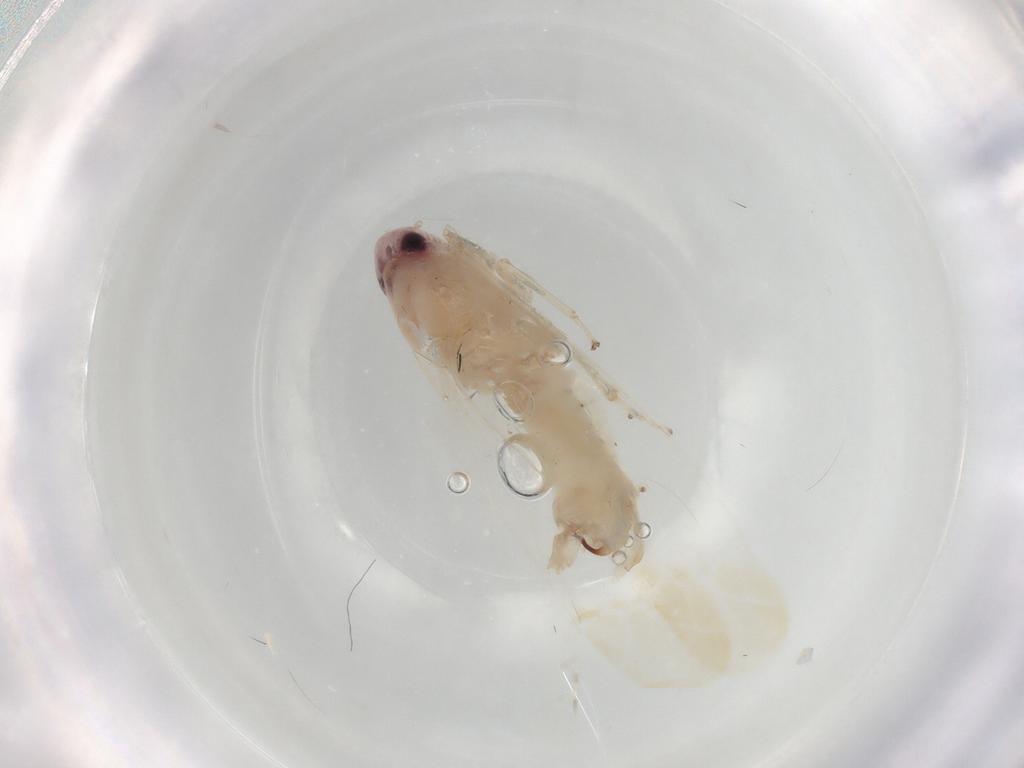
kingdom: Animalia
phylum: Arthropoda
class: Insecta
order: Hemiptera
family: Cicadellidae
